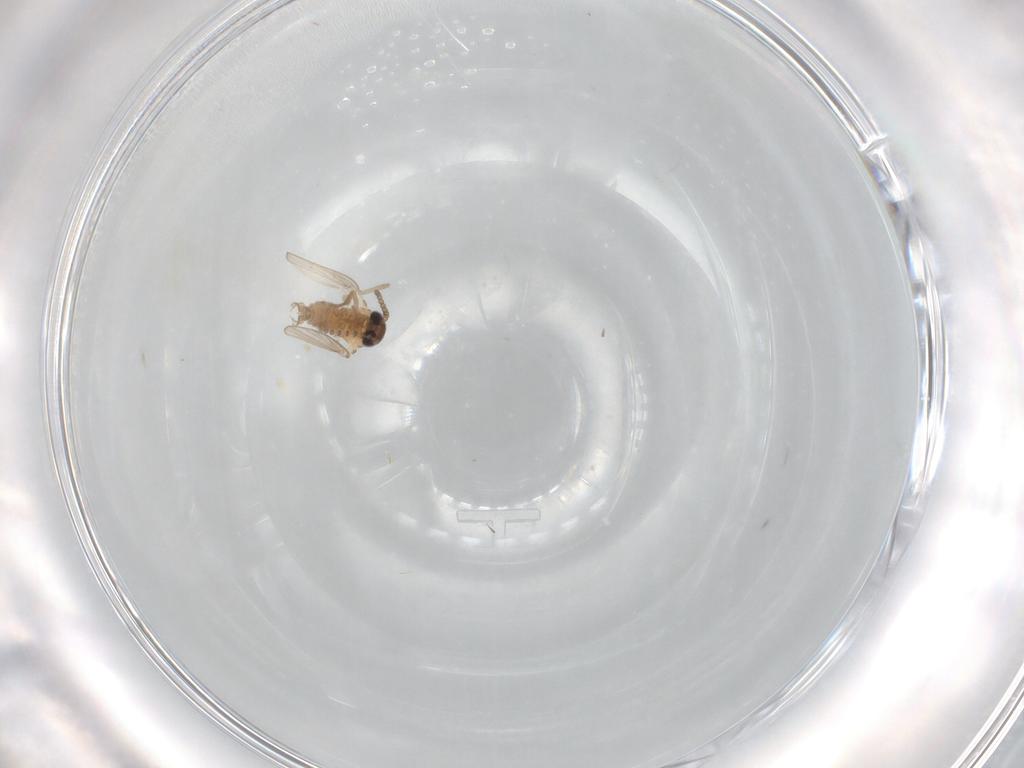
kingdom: Animalia
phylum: Arthropoda
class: Insecta
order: Diptera
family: Psychodidae
